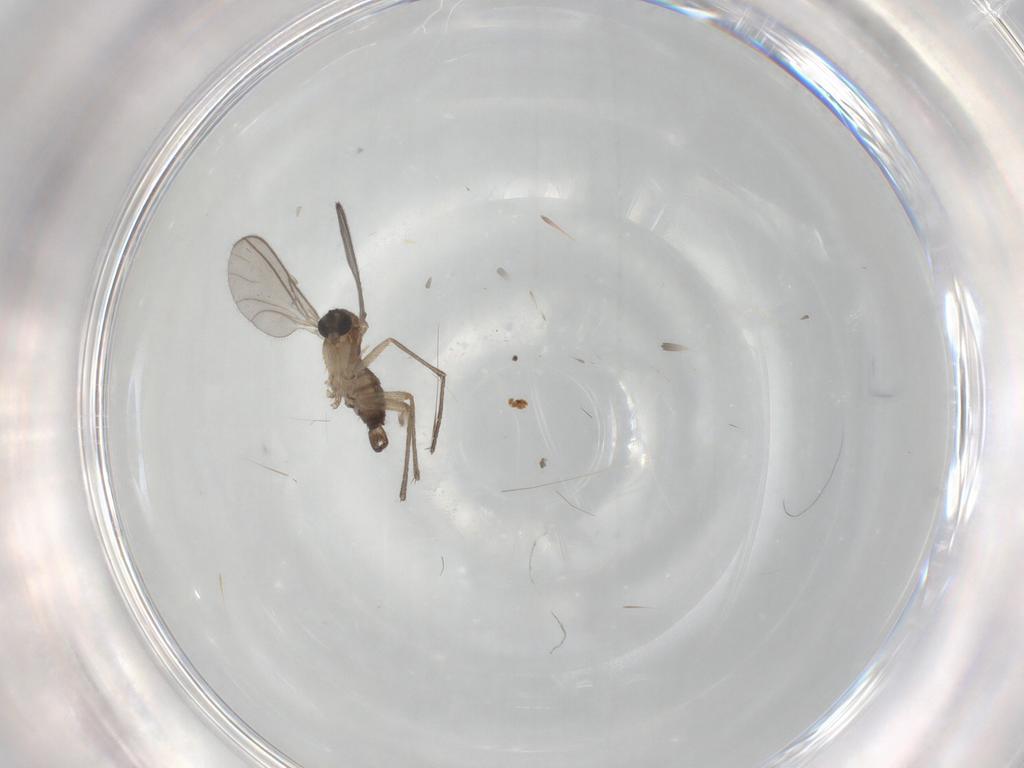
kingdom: Animalia
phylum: Arthropoda
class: Insecta
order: Diptera
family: Sciaridae
